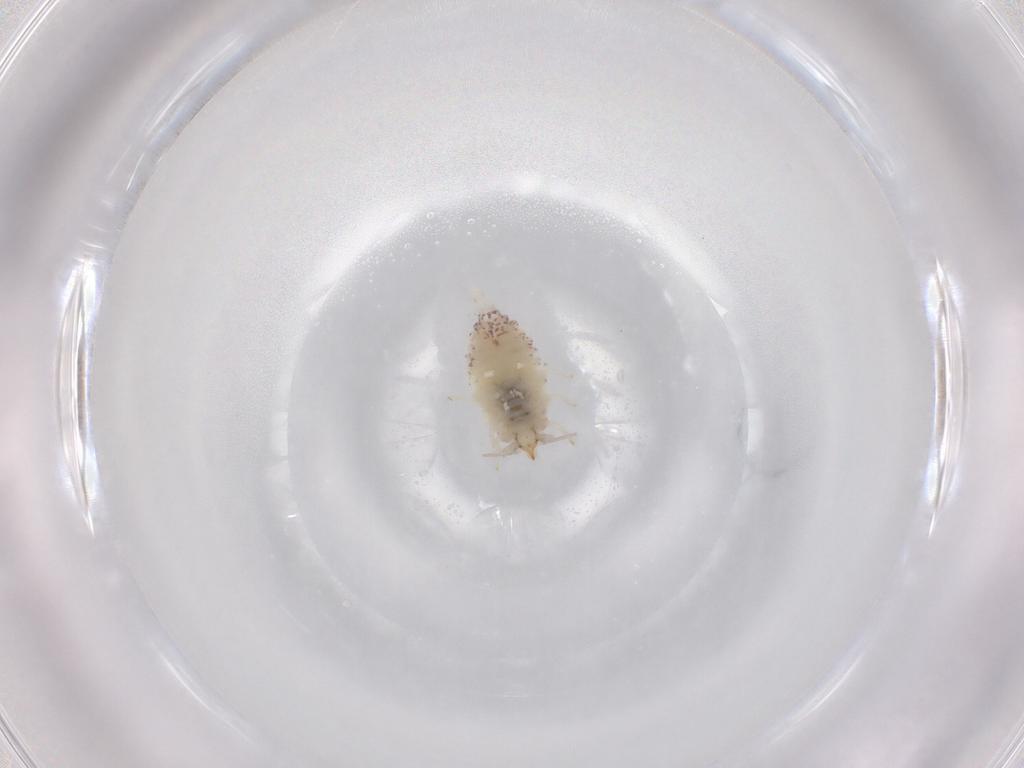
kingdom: Animalia
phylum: Arthropoda
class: Insecta
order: Neuroptera
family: Coniopterygidae
